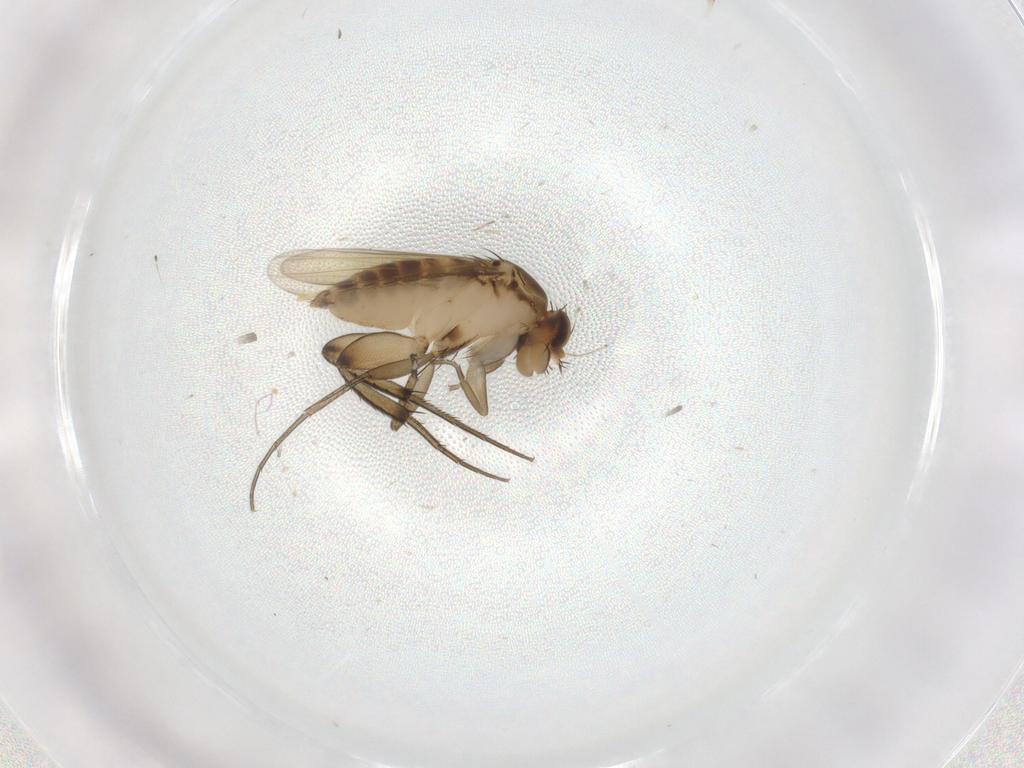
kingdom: Animalia
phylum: Arthropoda
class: Insecta
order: Diptera
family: Phoridae
